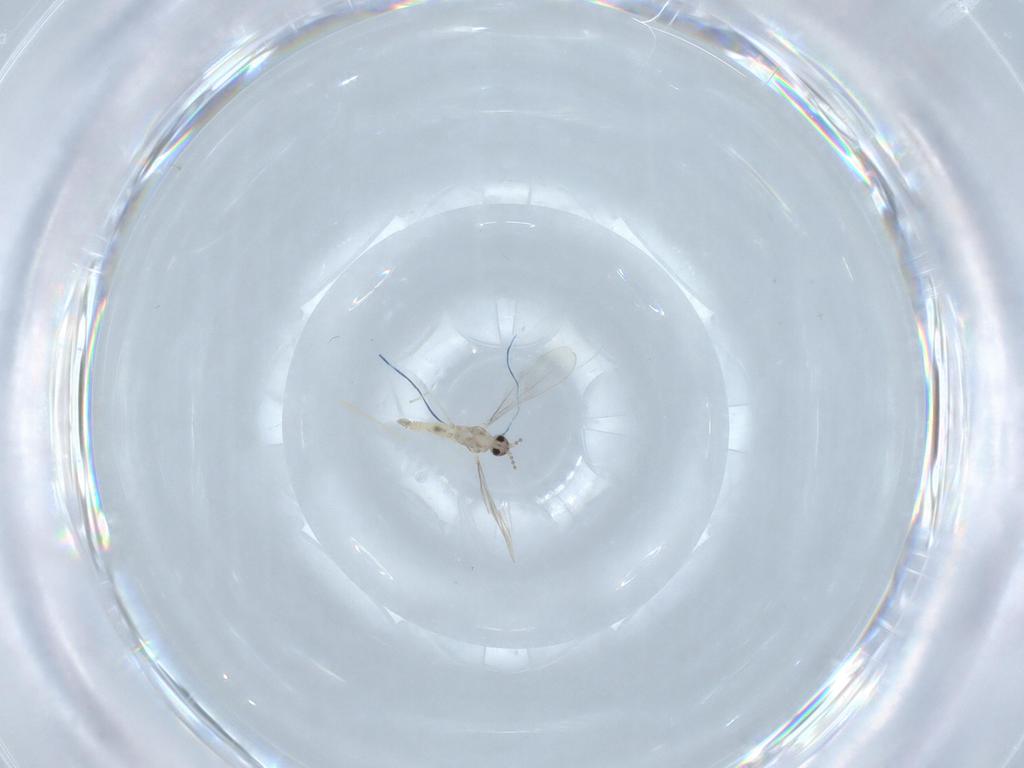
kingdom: Animalia
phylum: Arthropoda
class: Insecta
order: Diptera
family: Cecidomyiidae
